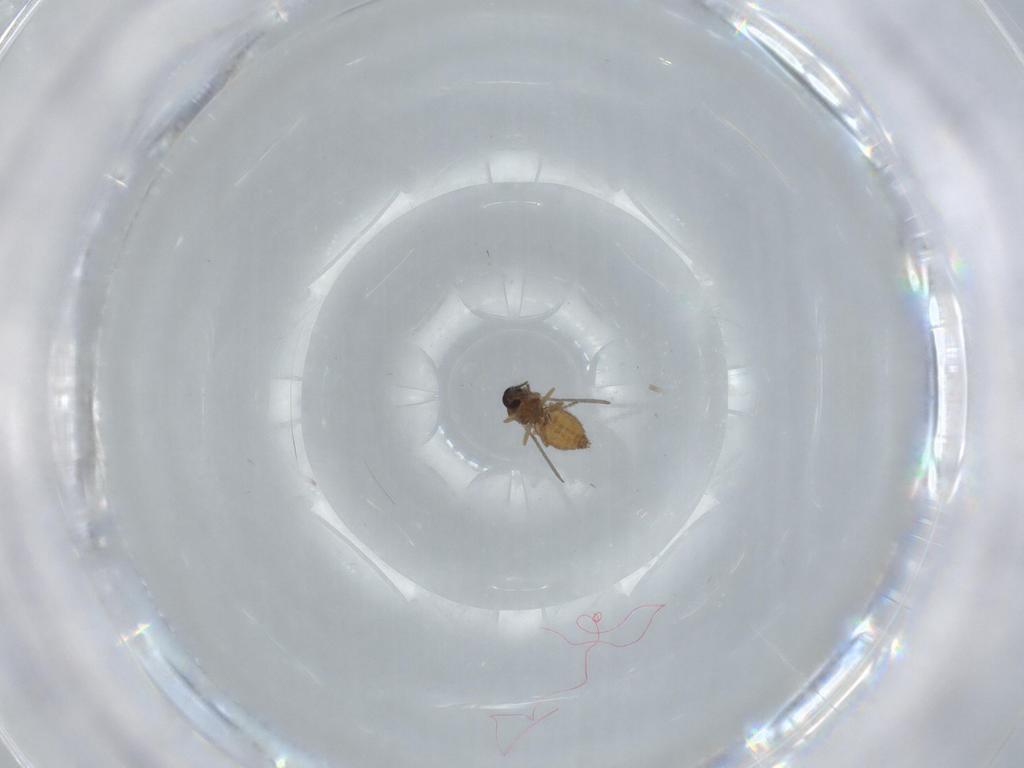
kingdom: Animalia
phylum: Arthropoda
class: Insecta
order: Diptera
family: Ceratopogonidae
